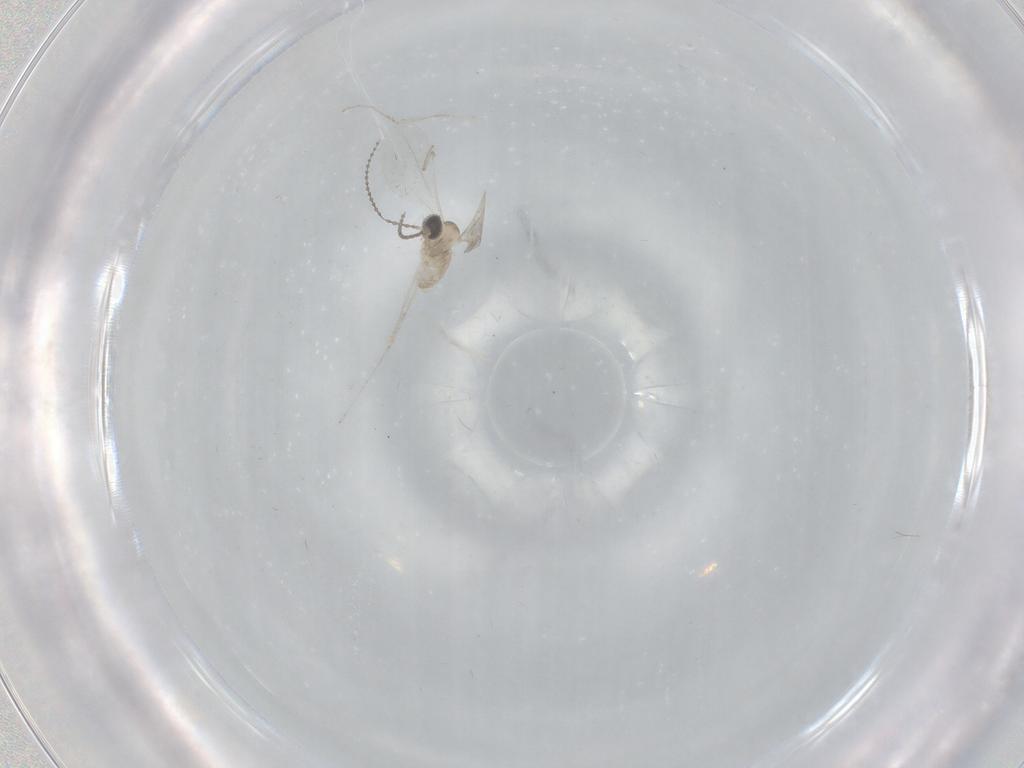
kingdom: Animalia
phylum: Arthropoda
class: Insecta
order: Diptera
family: Cecidomyiidae
